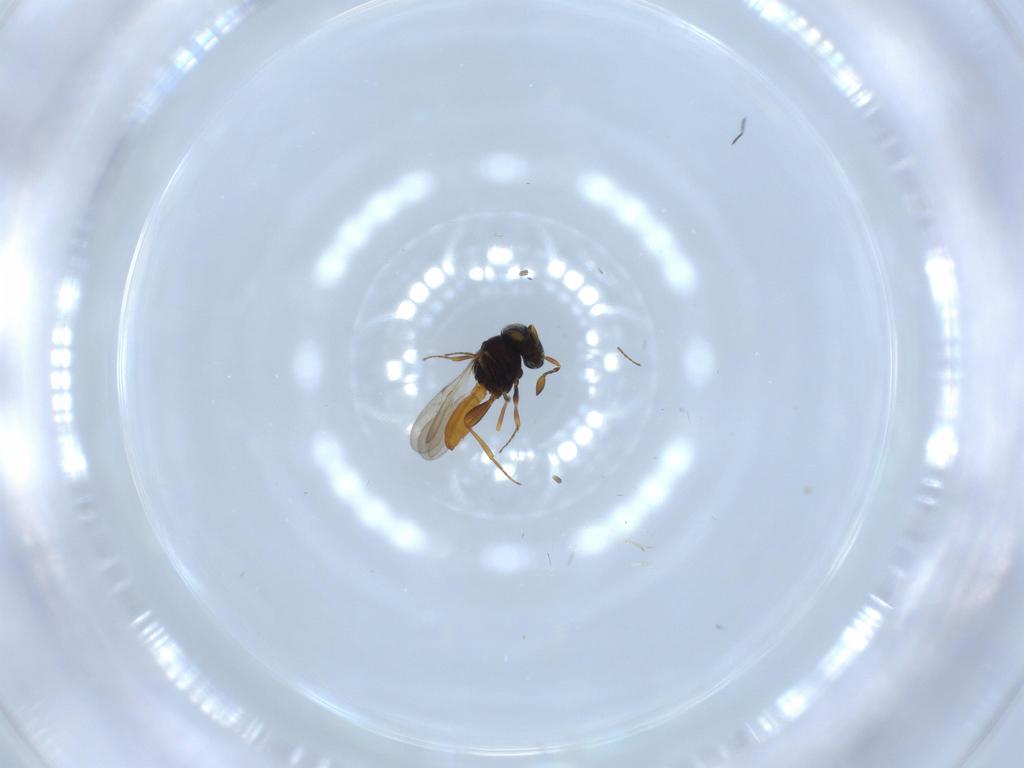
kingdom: Animalia
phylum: Arthropoda
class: Insecta
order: Hymenoptera
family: Scelionidae
